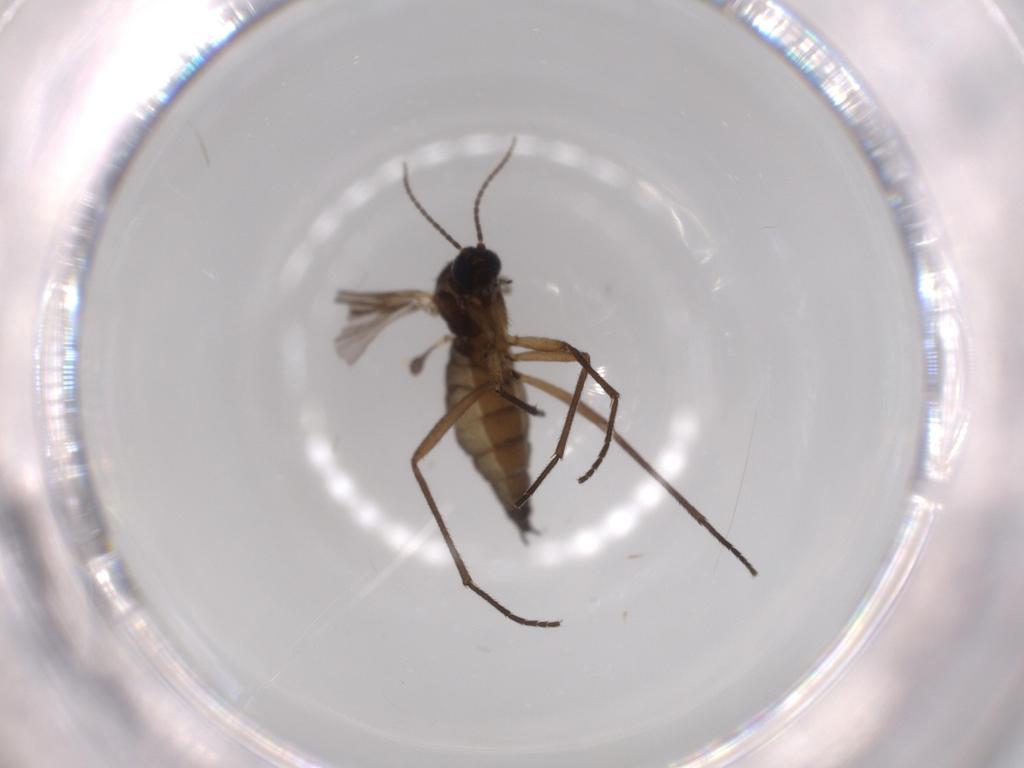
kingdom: Animalia
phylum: Arthropoda
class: Insecta
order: Diptera
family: Sciaridae
